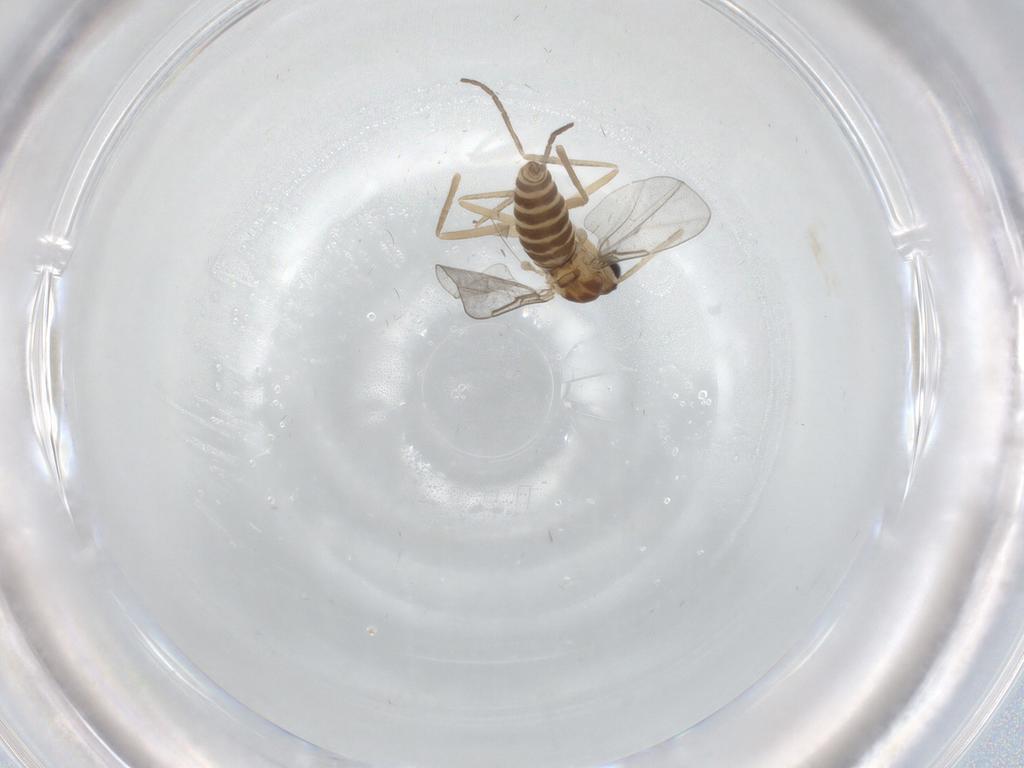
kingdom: Animalia
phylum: Arthropoda
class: Insecta
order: Diptera
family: Cecidomyiidae
